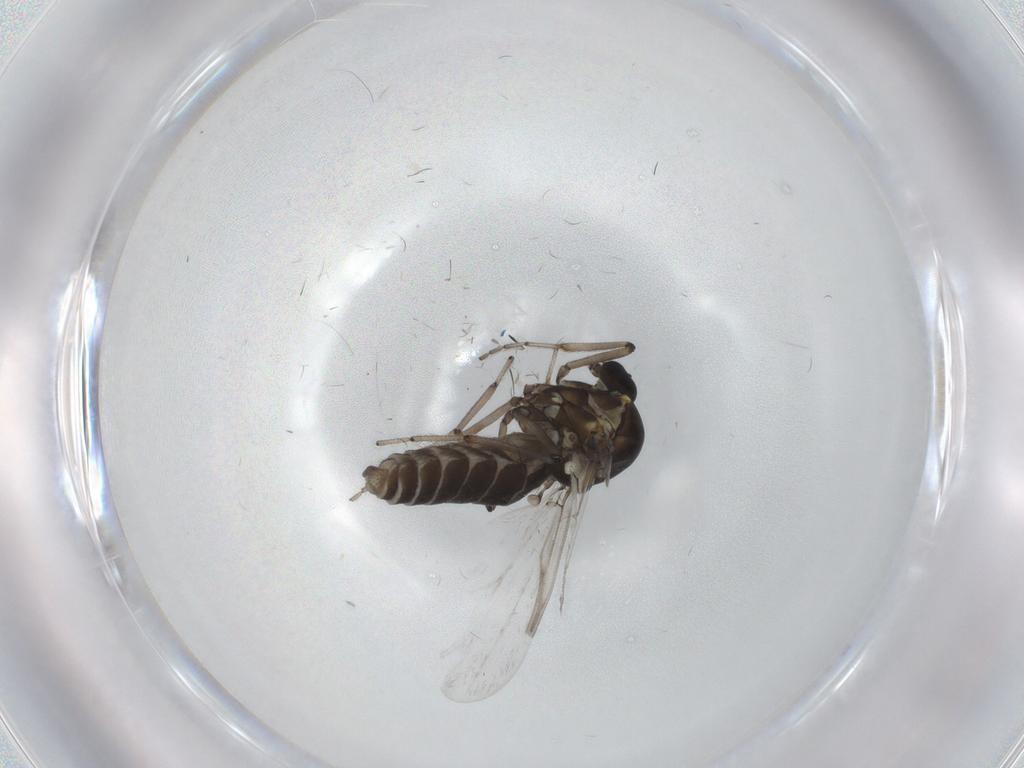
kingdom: Animalia
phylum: Arthropoda
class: Insecta
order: Diptera
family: Ceratopogonidae
